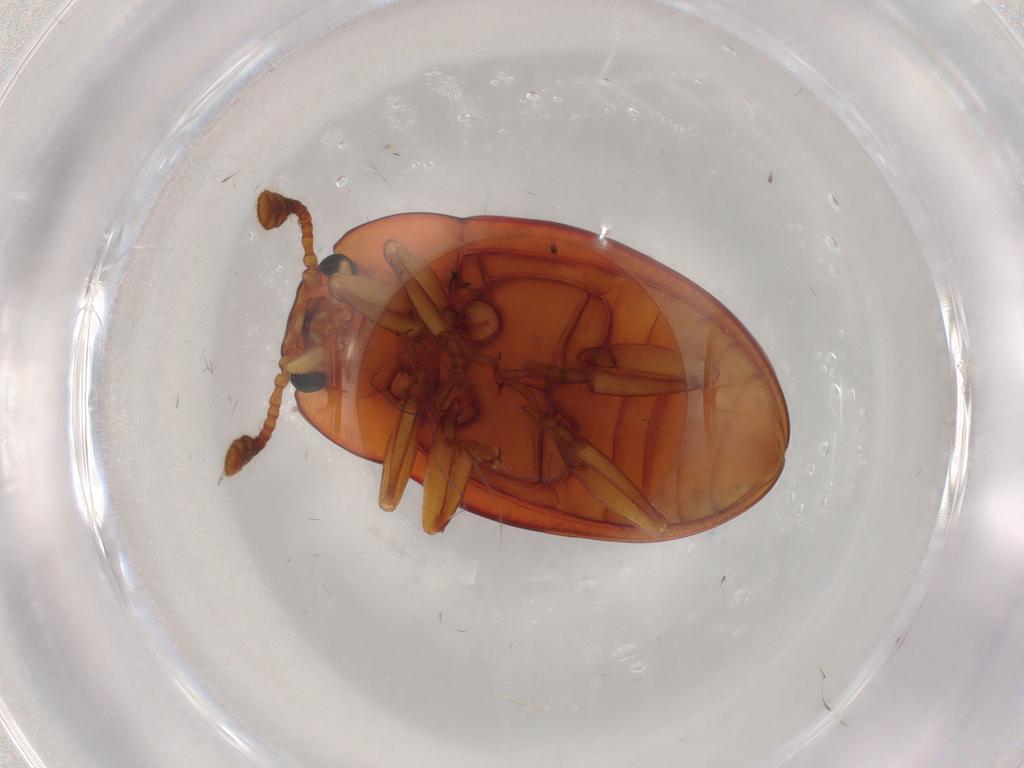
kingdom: Animalia
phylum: Arthropoda
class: Insecta
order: Coleoptera
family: Erotylidae
